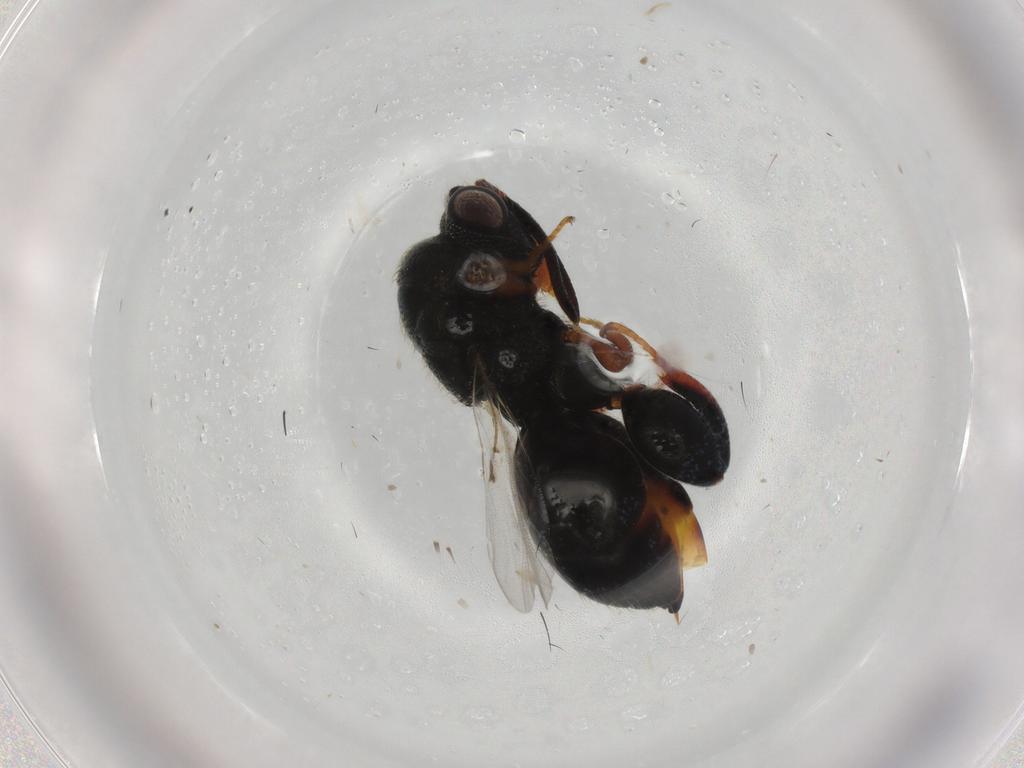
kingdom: Animalia
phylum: Arthropoda
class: Insecta
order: Hymenoptera
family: Chalcididae
